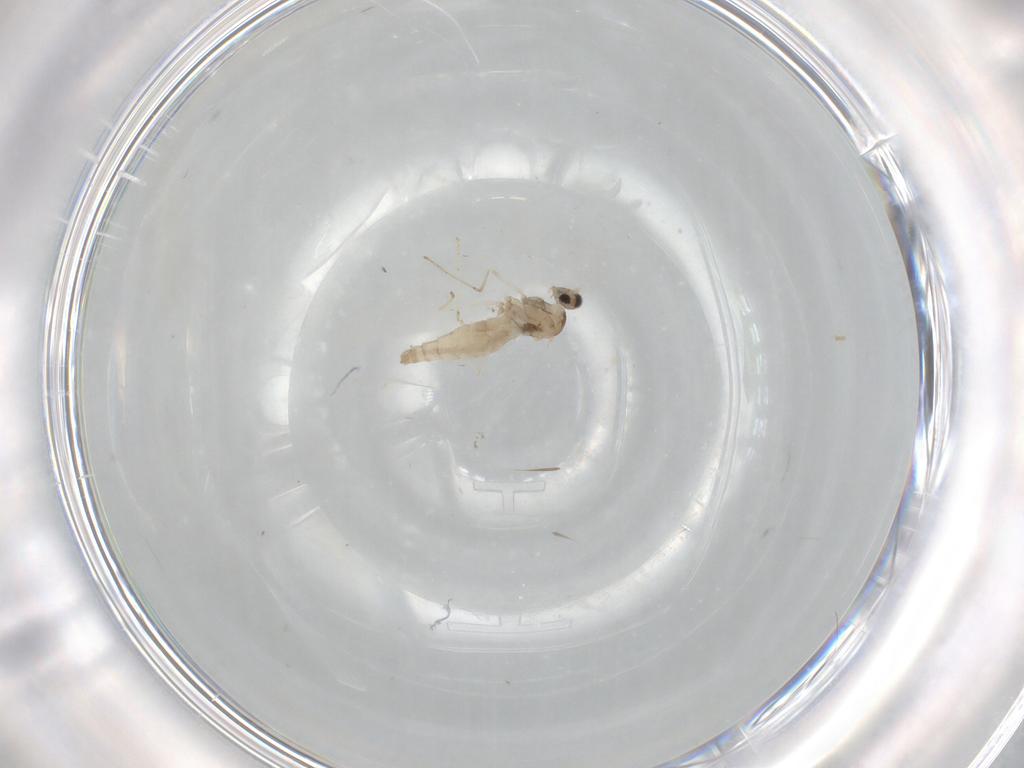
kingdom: Animalia
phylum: Arthropoda
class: Insecta
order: Diptera
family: Cecidomyiidae
